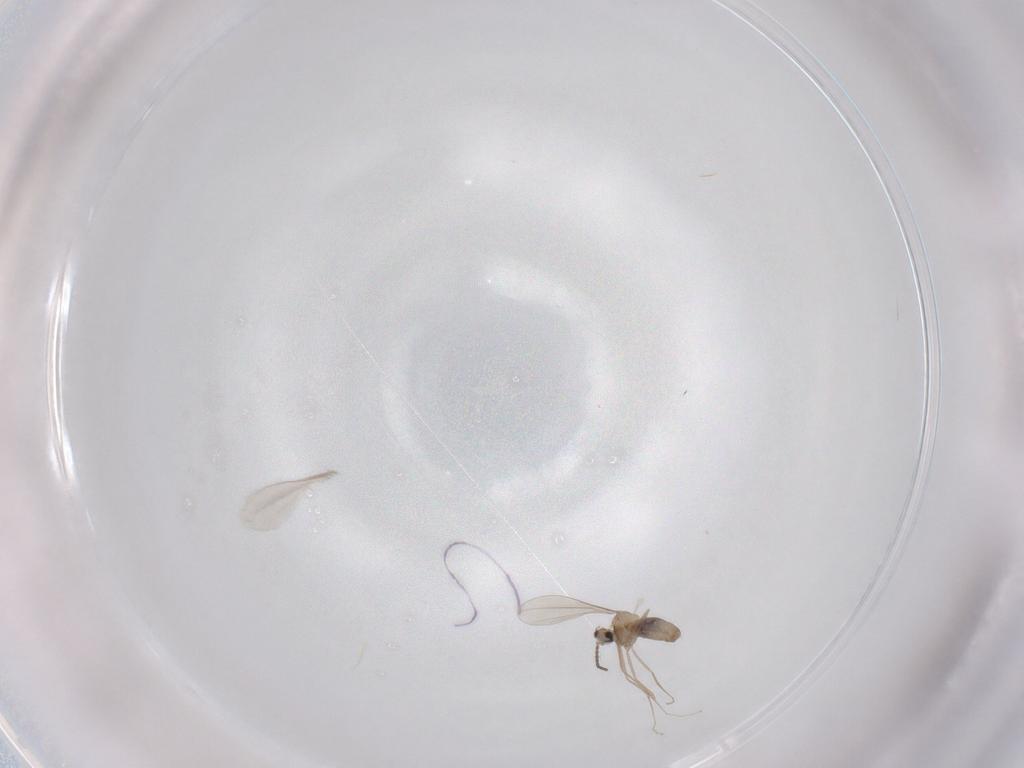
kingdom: Animalia
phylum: Arthropoda
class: Insecta
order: Diptera
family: Cecidomyiidae
